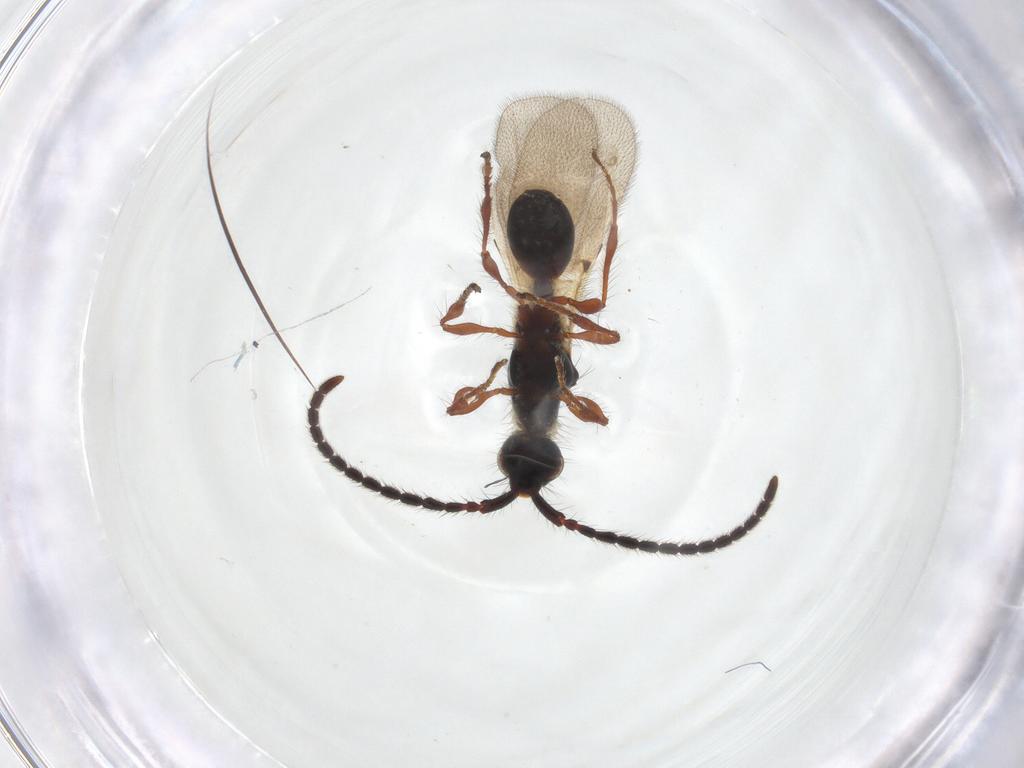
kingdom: Animalia
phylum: Arthropoda
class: Insecta
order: Hymenoptera
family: Diapriidae
